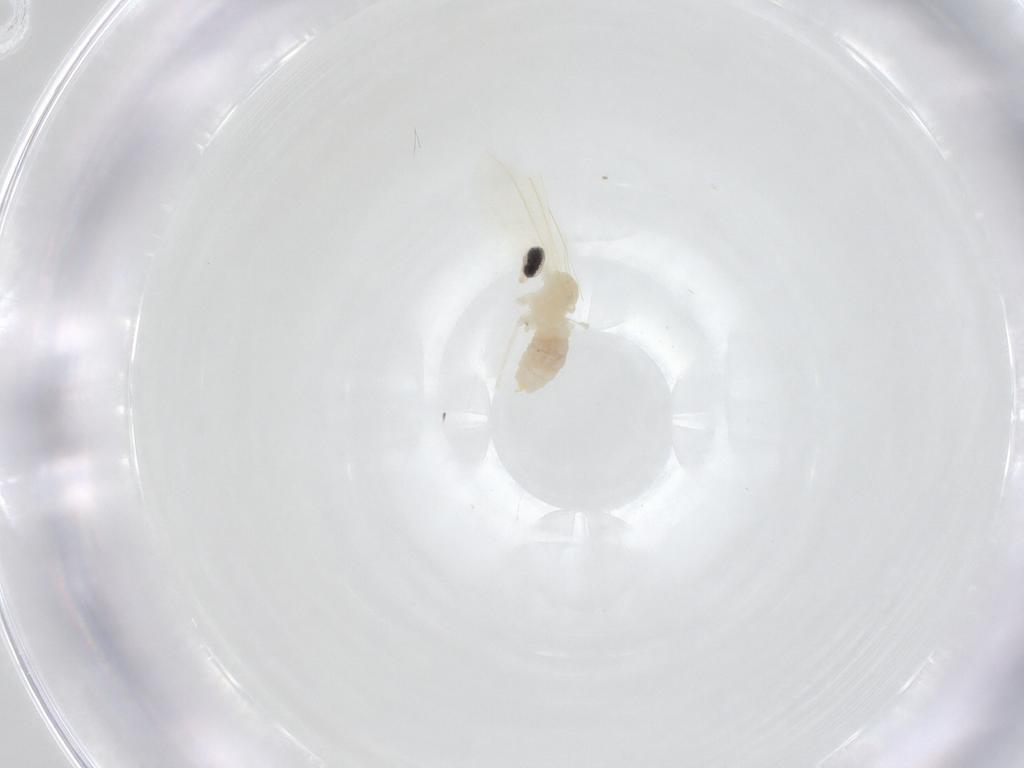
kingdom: Animalia
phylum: Arthropoda
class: Insecta
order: Diptera
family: Cecidomyiidae
